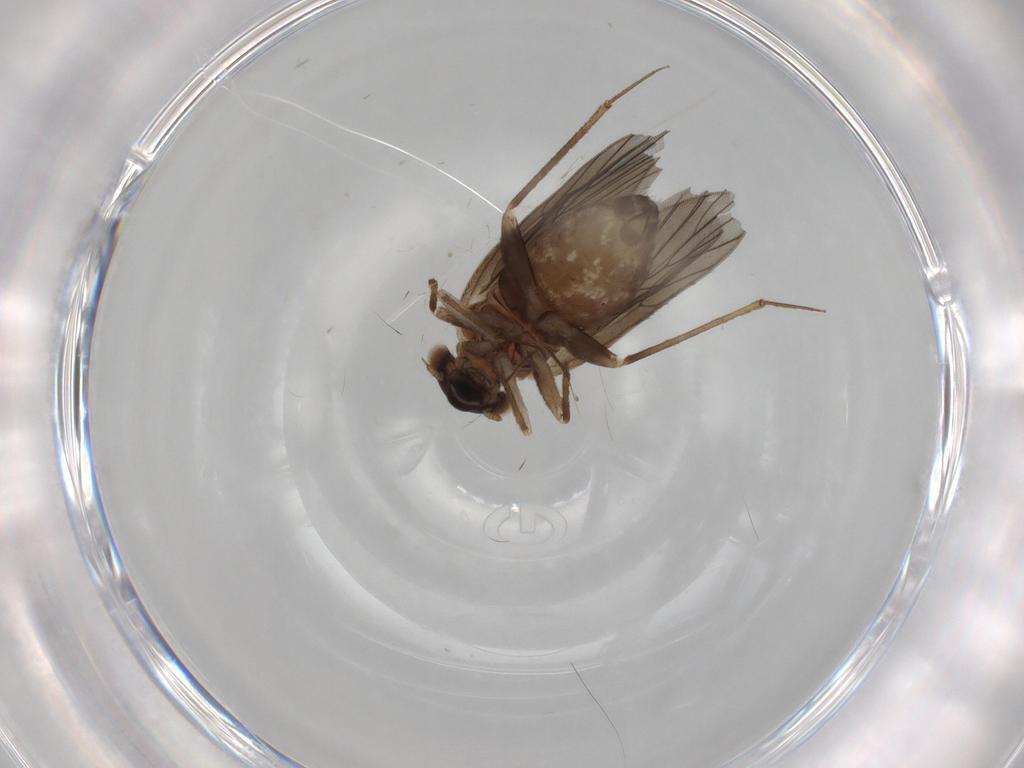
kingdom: Animalia
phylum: Arthropoda
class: Insecta
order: Psocodea
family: Lepidopsocidae
